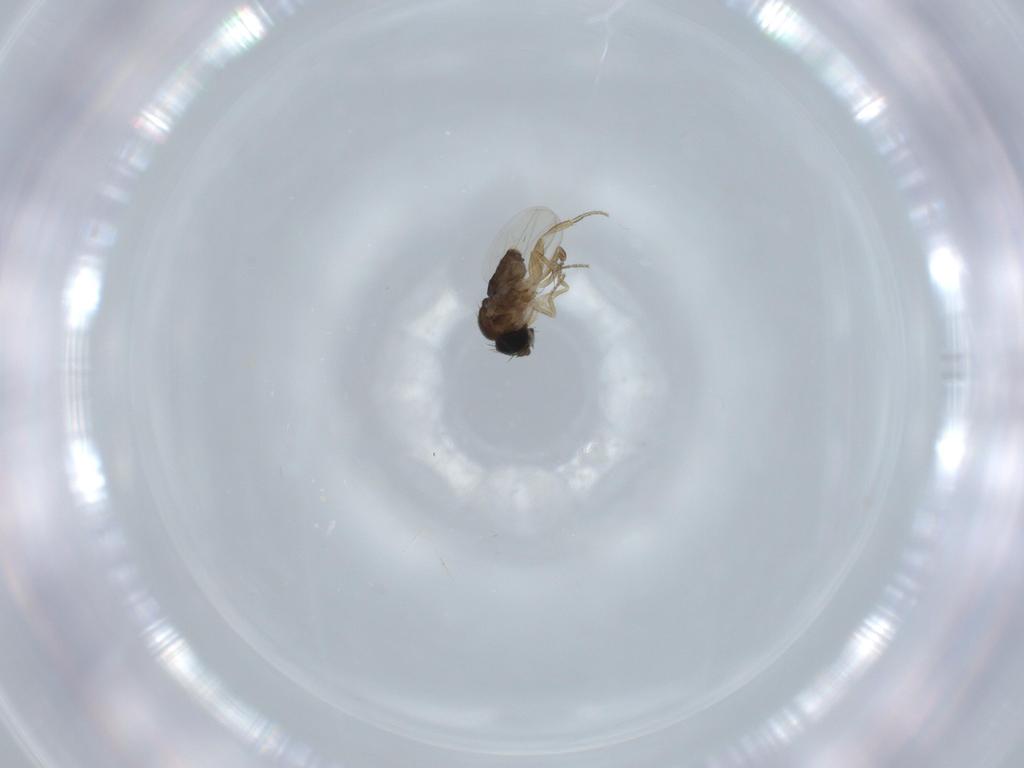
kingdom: Animalia
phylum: Arthropoda
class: Insecta
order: Diptera
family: Cecidomyiidae
